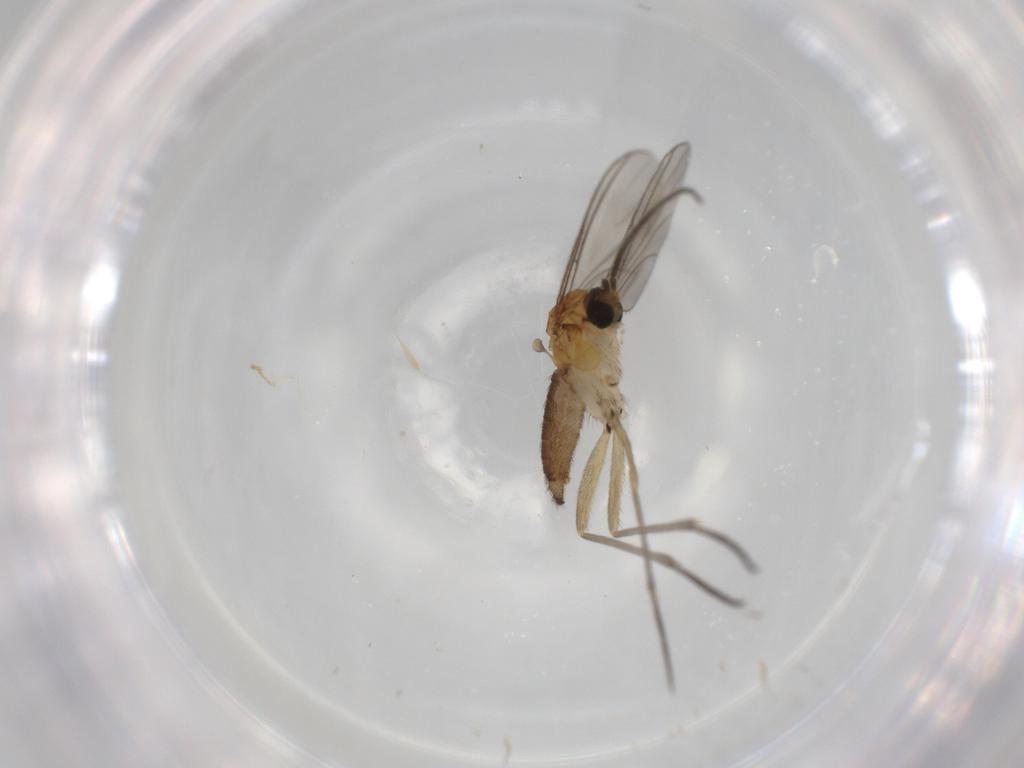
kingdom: Animalia
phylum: Arthropoda
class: Insecta
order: Diptera
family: Sciaridae
